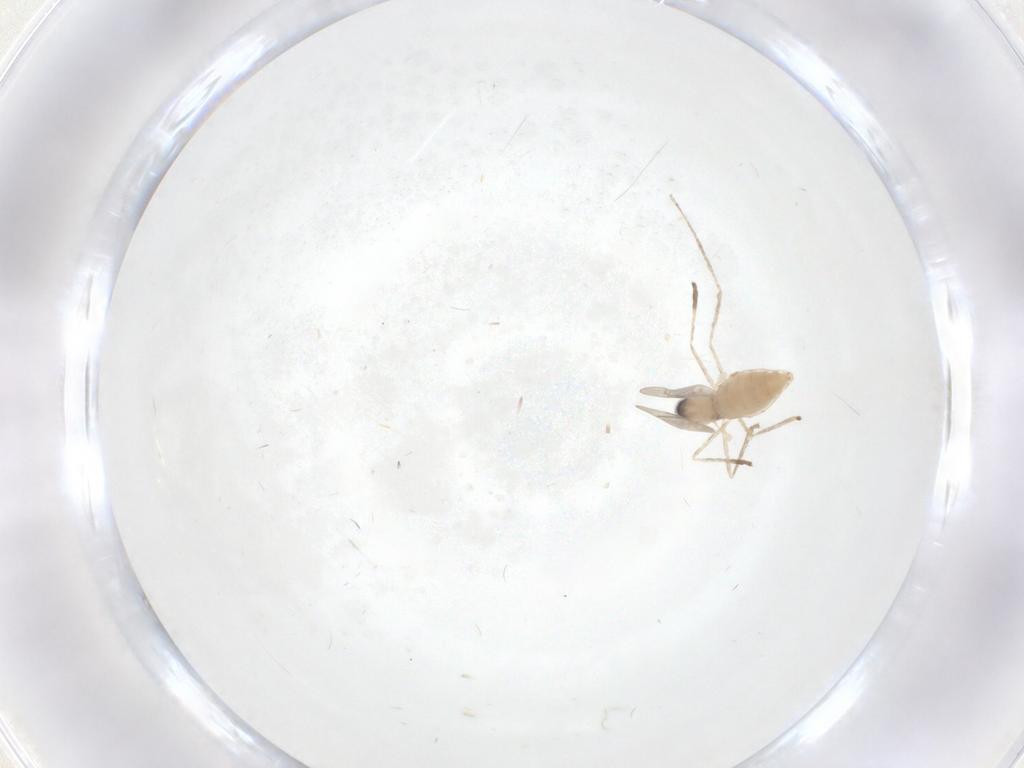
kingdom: Animalia
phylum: Arthropoda
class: Insecta
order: Diptera
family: Cecidomyiidae
